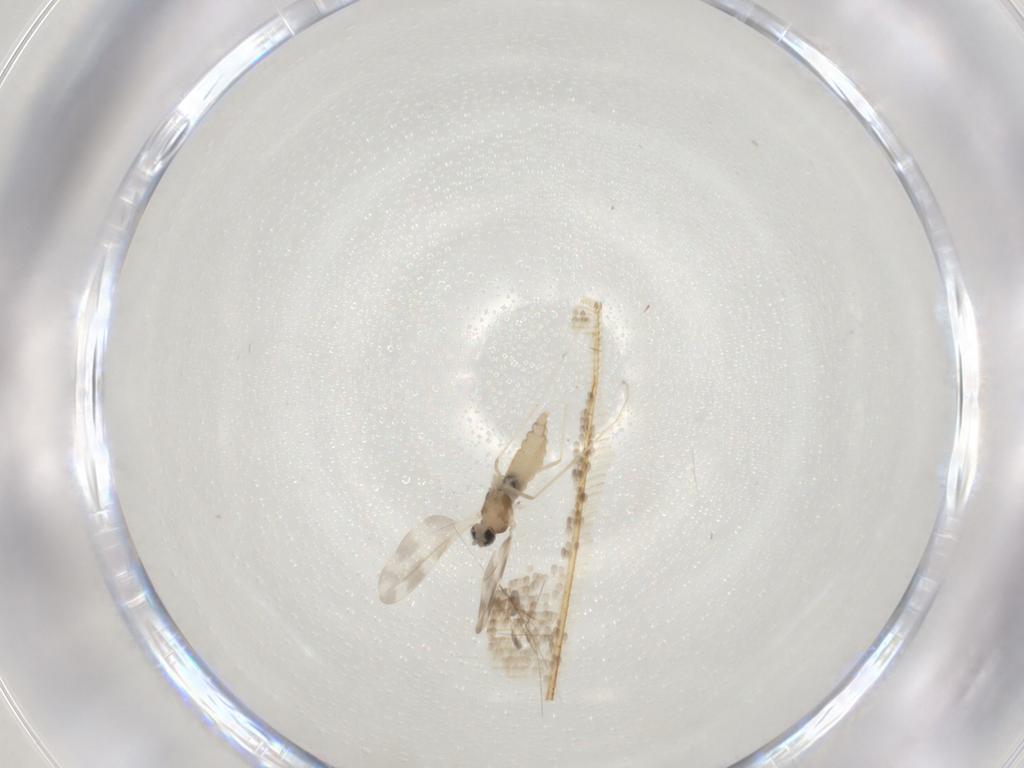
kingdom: Animalia
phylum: Arthropoda
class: Insecta
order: Diptera
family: Cecidomyiidae
